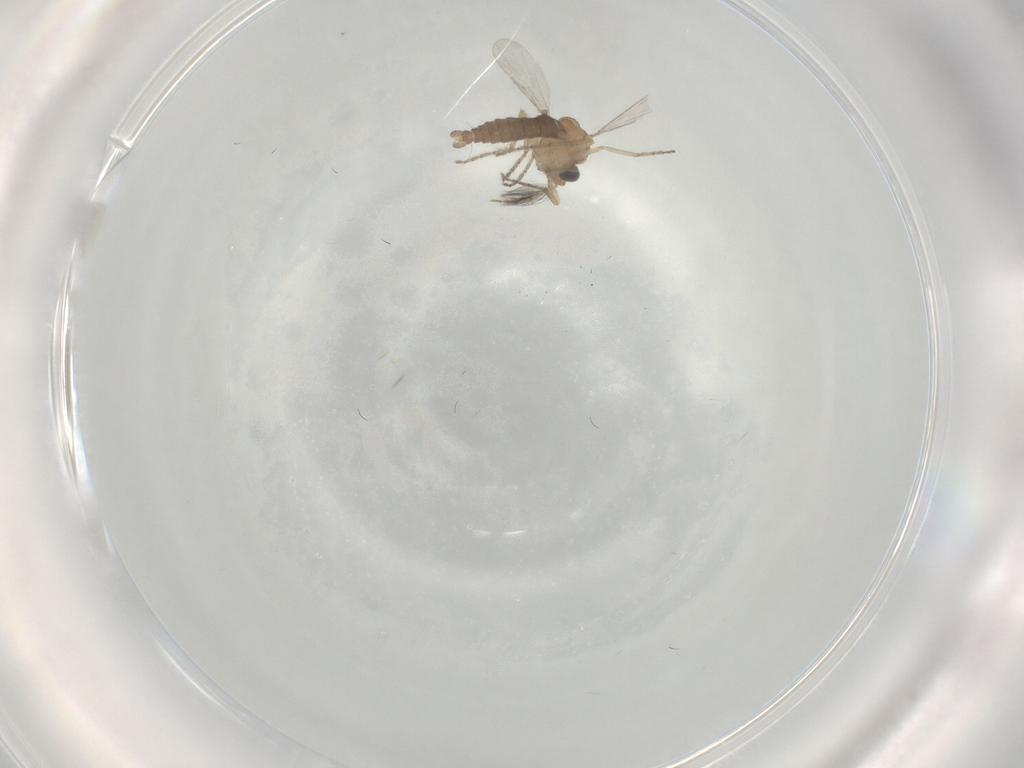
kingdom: Animalia
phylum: Arthropoda
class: Insecta
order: Diptera
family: Ceratopogonidae
